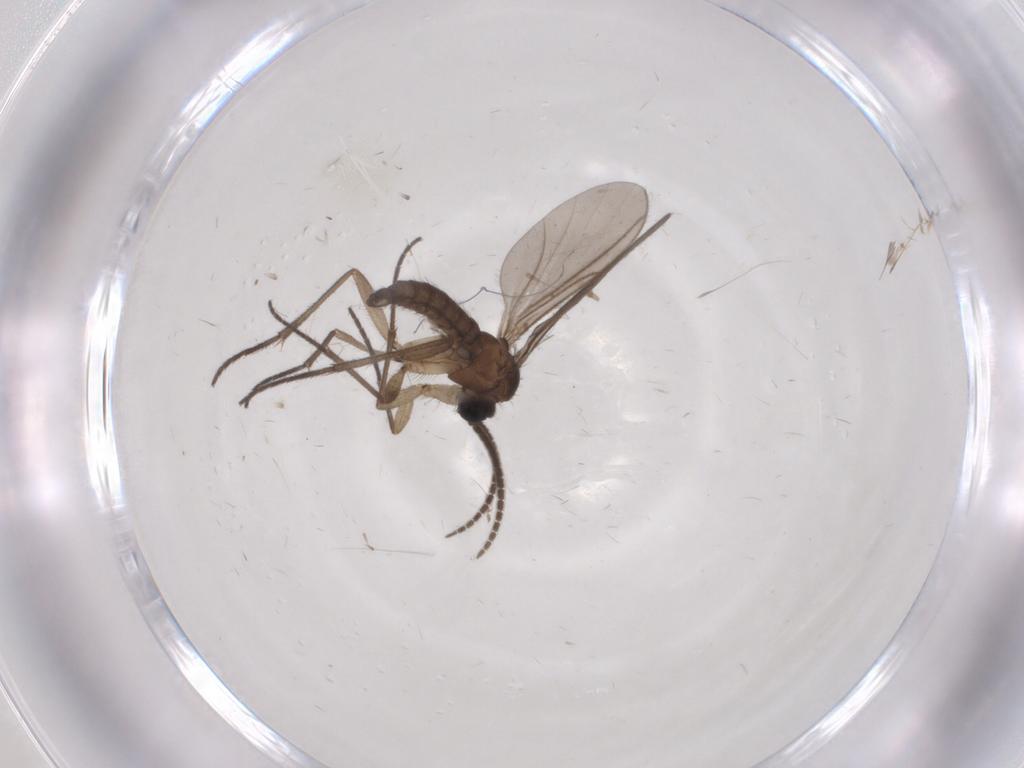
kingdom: Animalia
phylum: Arthropoda
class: Insecta
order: Diptera
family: Sciaridae
